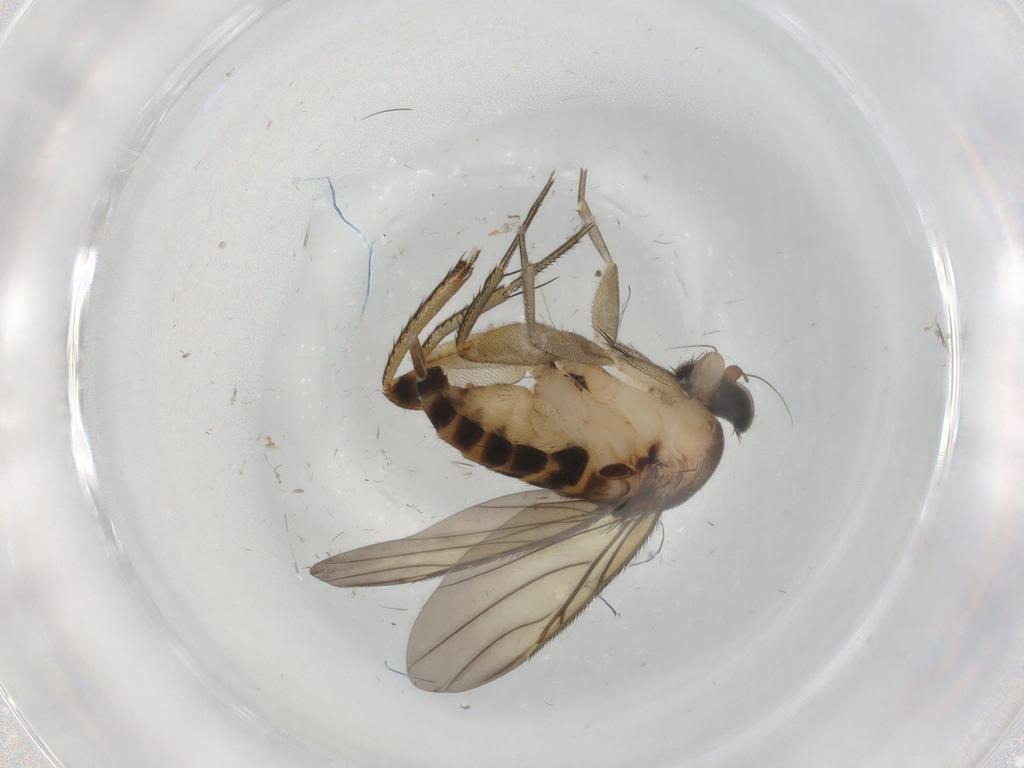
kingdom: Animalia
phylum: Arthropoda
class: Insecta
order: Diptera
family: Phoridae
